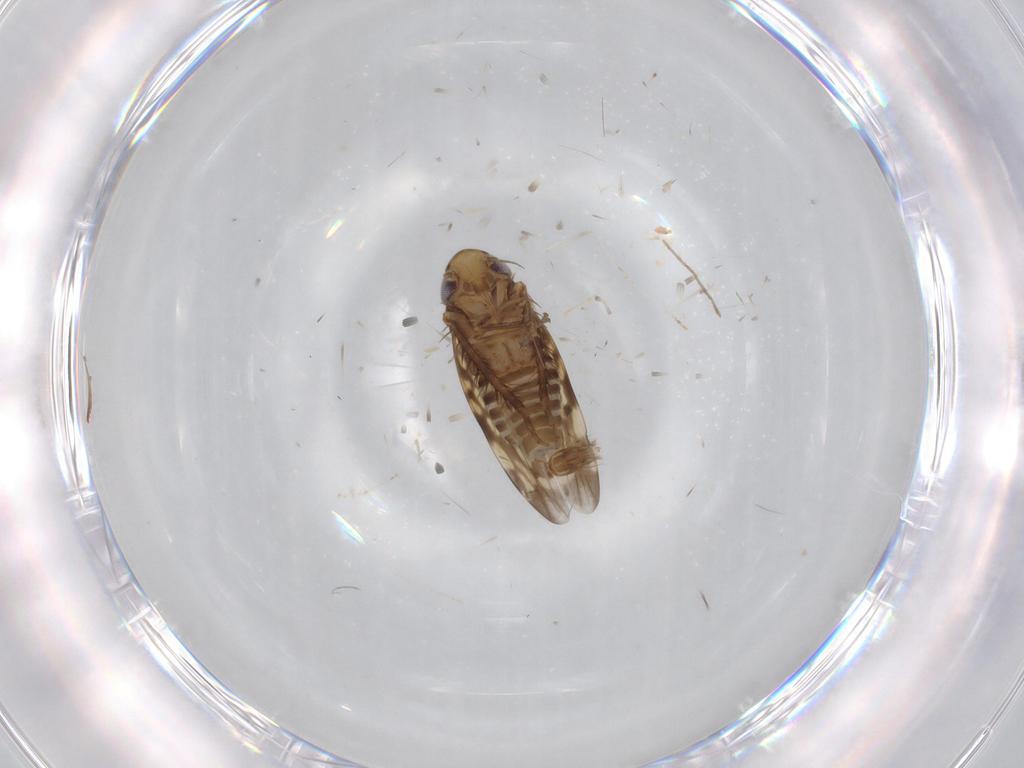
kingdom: Animalia
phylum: Arthropoda
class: Insecta
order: Hemiptera
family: Cicadellidae
